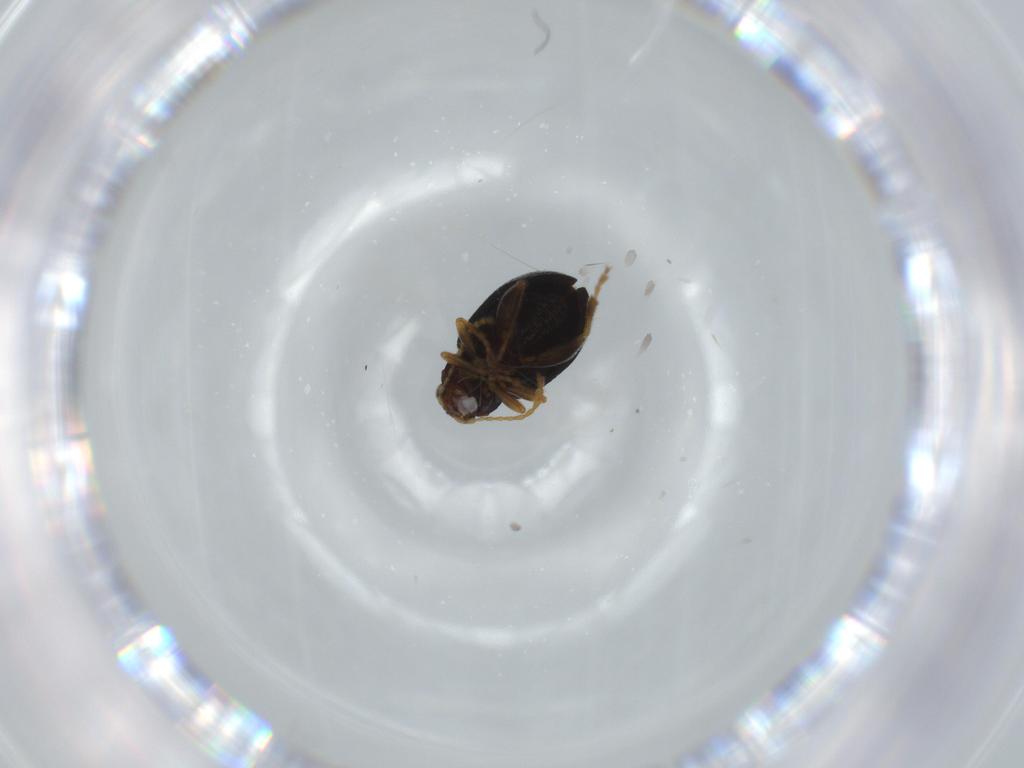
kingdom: Animalia
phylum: Arthropoda
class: Insecta
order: Coleoptera
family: Chrysomelidae
